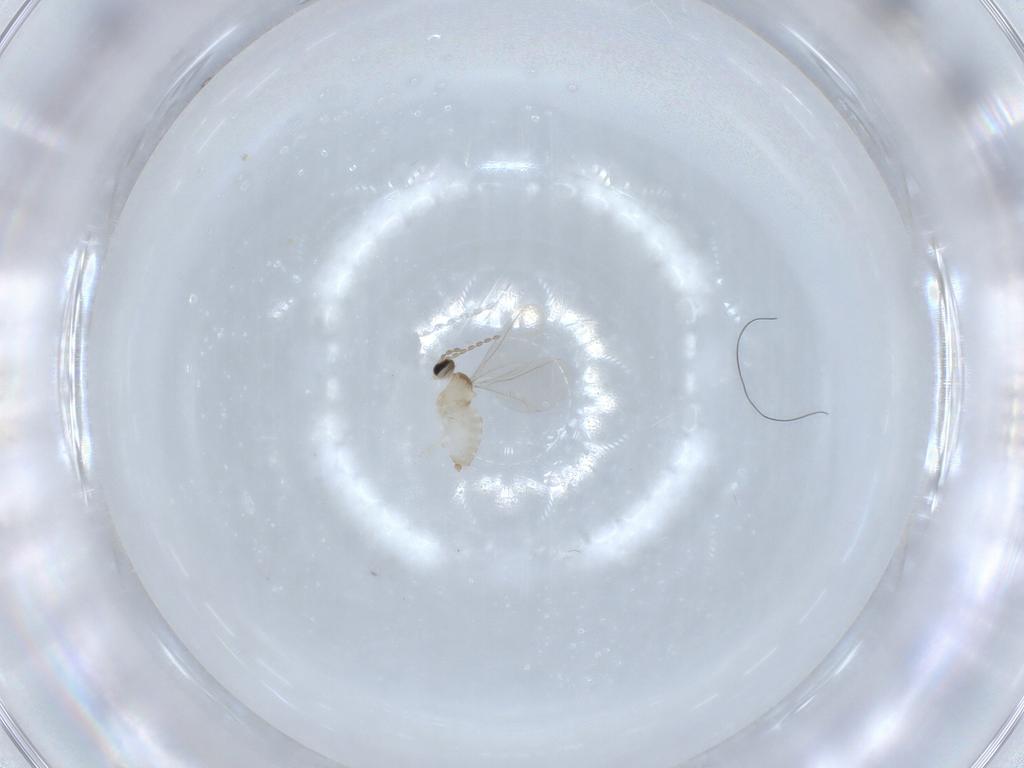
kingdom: Animalia
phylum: Arthropoda
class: Insecta
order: Diptera
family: Cecidomyiidae
